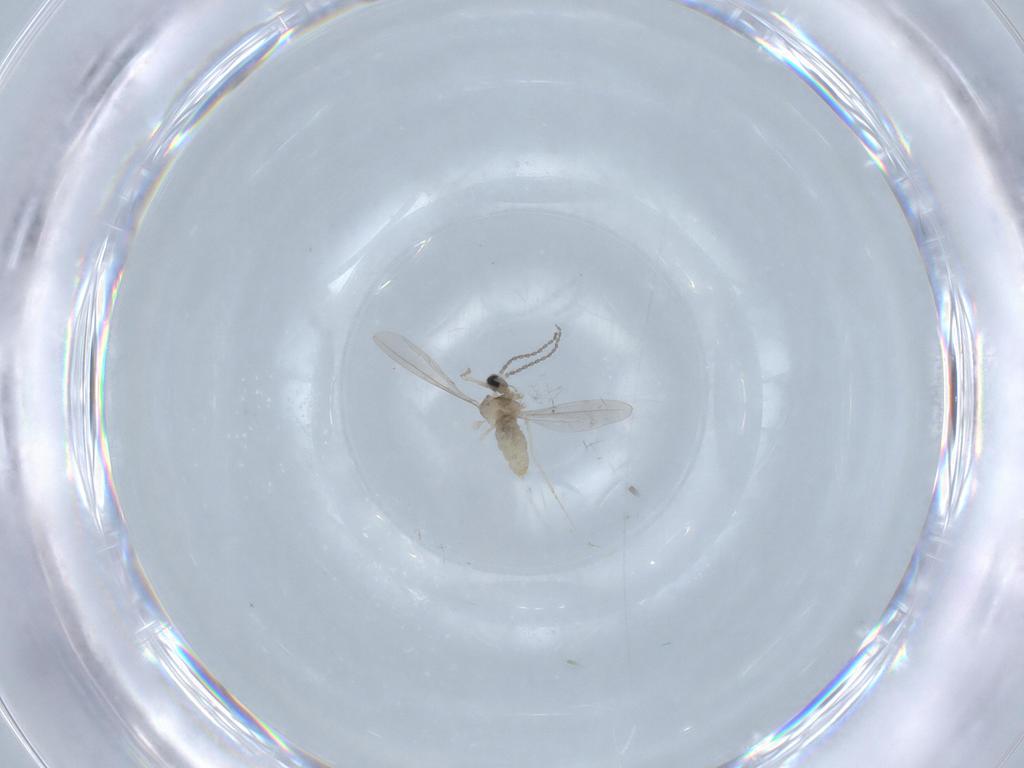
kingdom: Animalia
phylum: Arthropoda
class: Insecta
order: Diptera
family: Cecidomyiidae
